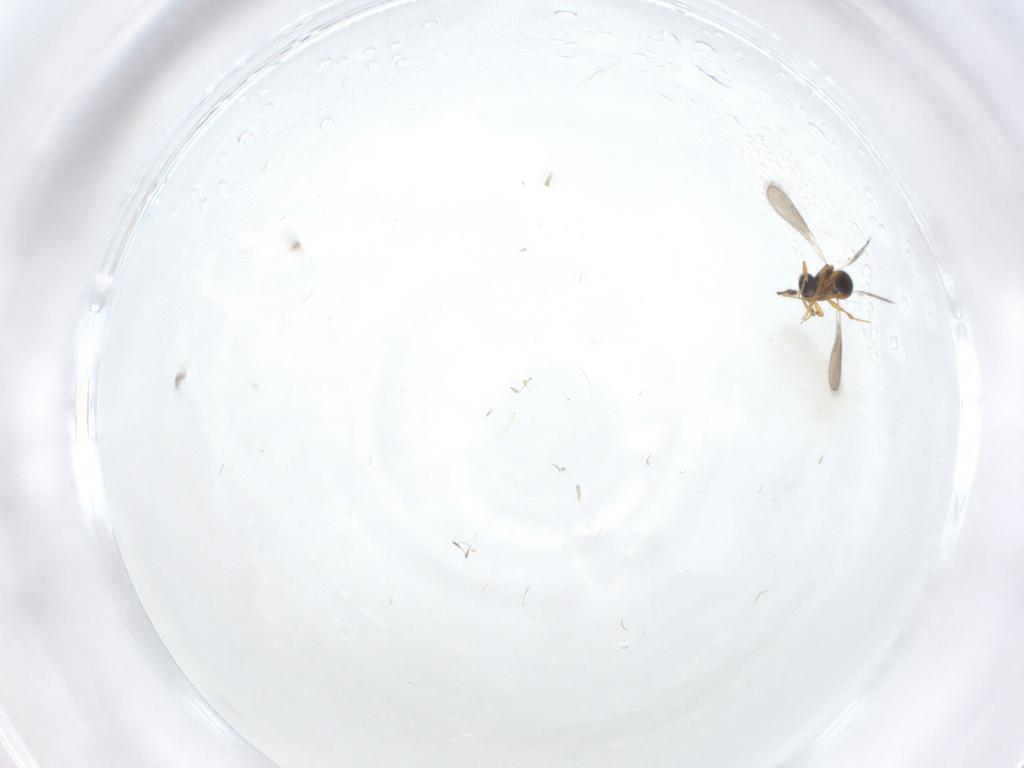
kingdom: Animalia
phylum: Arthropoda
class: Insecta
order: Hymenoptera
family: Platygastridae
